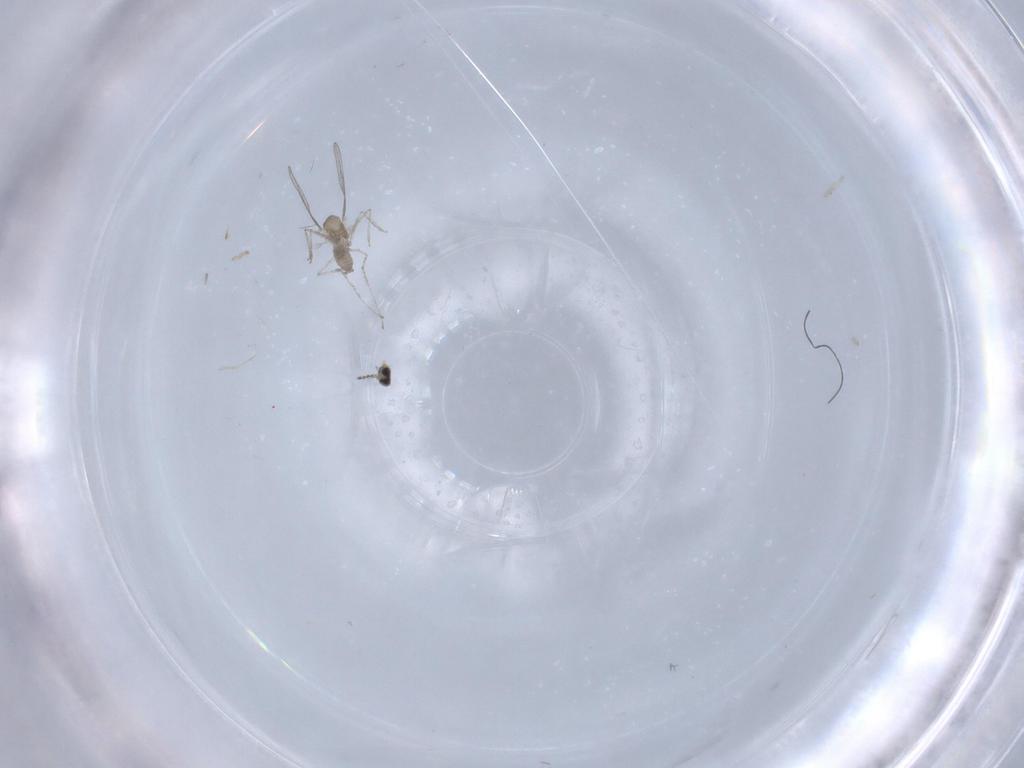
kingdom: Animalia
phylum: Arthropoda
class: Insecta
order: Diptera
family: Cecidomyiidae
